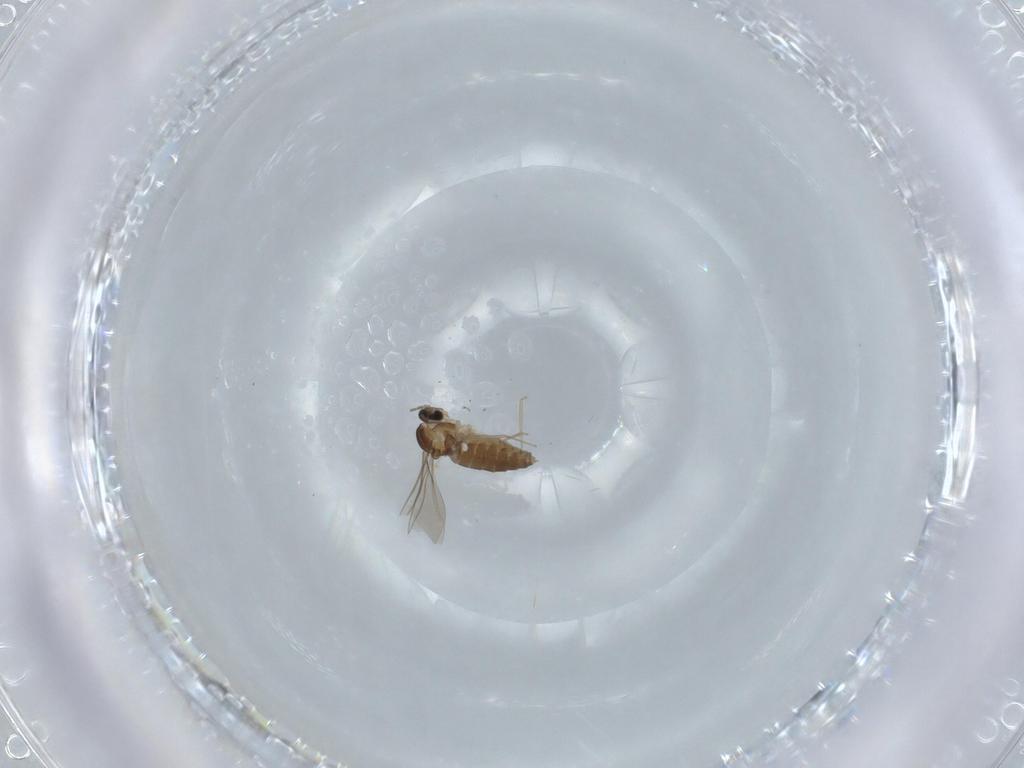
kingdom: Animalia
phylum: Arthropoda
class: Insecta
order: Diptera
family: Cecidomyiidae
